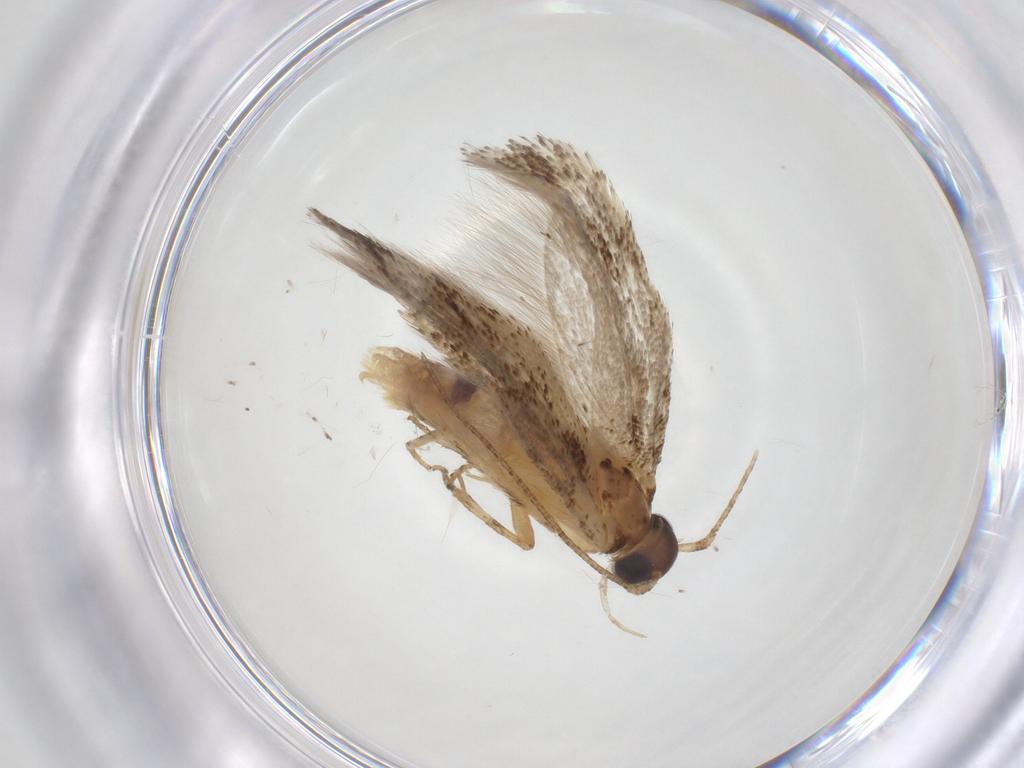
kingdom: Animalia
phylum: Arthropoda
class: Insecta
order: Lepidoptera
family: Gelechiidae
